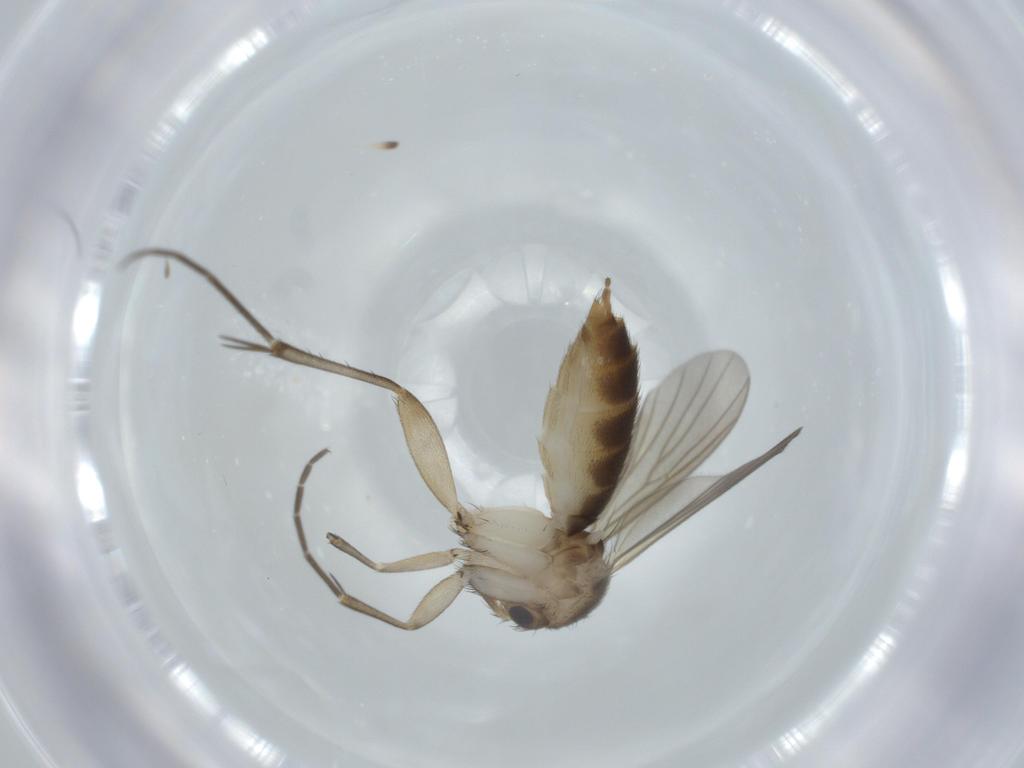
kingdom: Animalia
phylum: Arthropoda
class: Insecta
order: Diptera
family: Mycetophilidae
